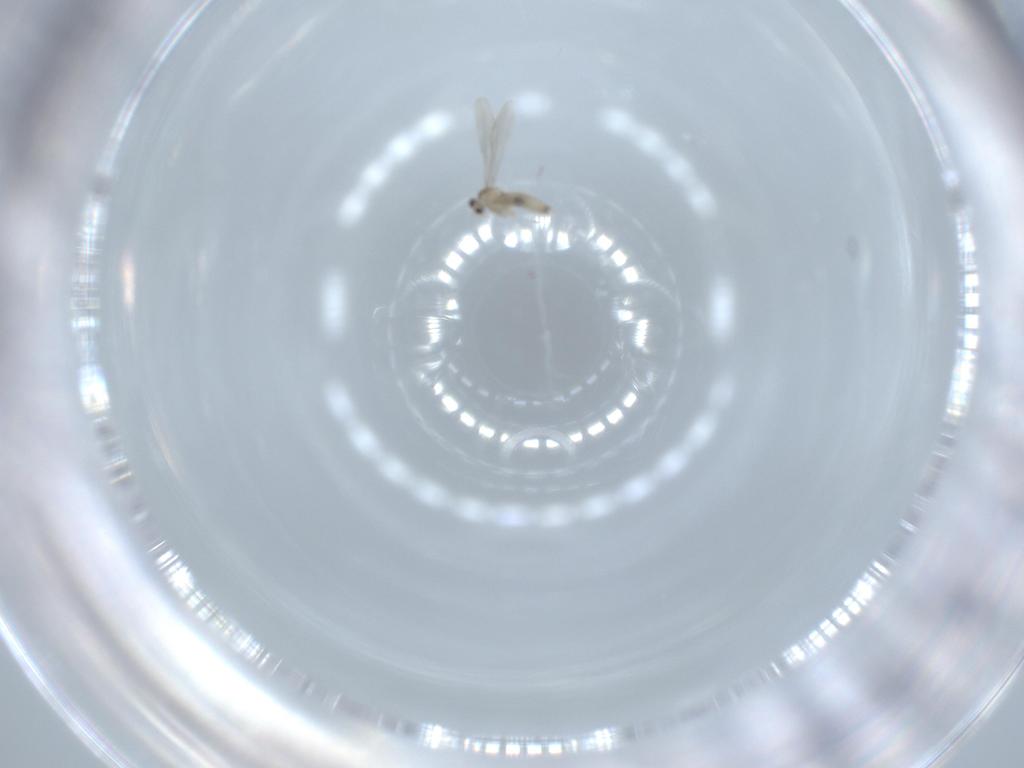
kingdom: Animalia
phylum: Arthropoda
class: Insecta
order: Diptera
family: Cecidomyiidae
